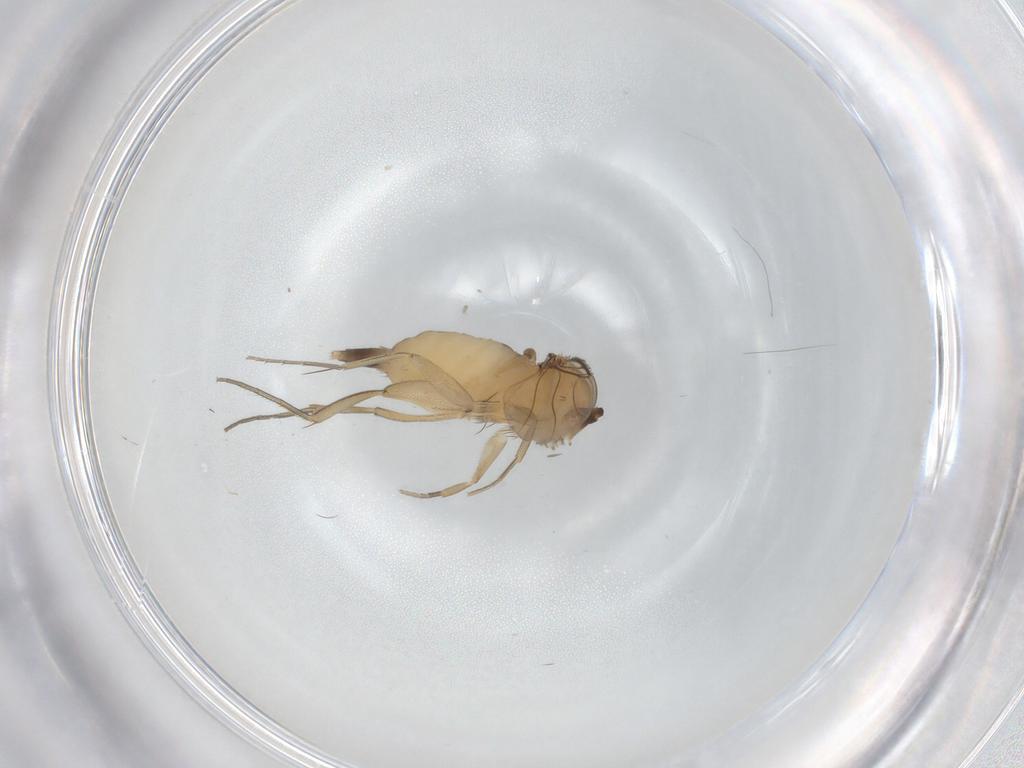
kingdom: Animalia
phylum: Arthropoda
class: Insecta
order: Diptera
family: Phoridae
